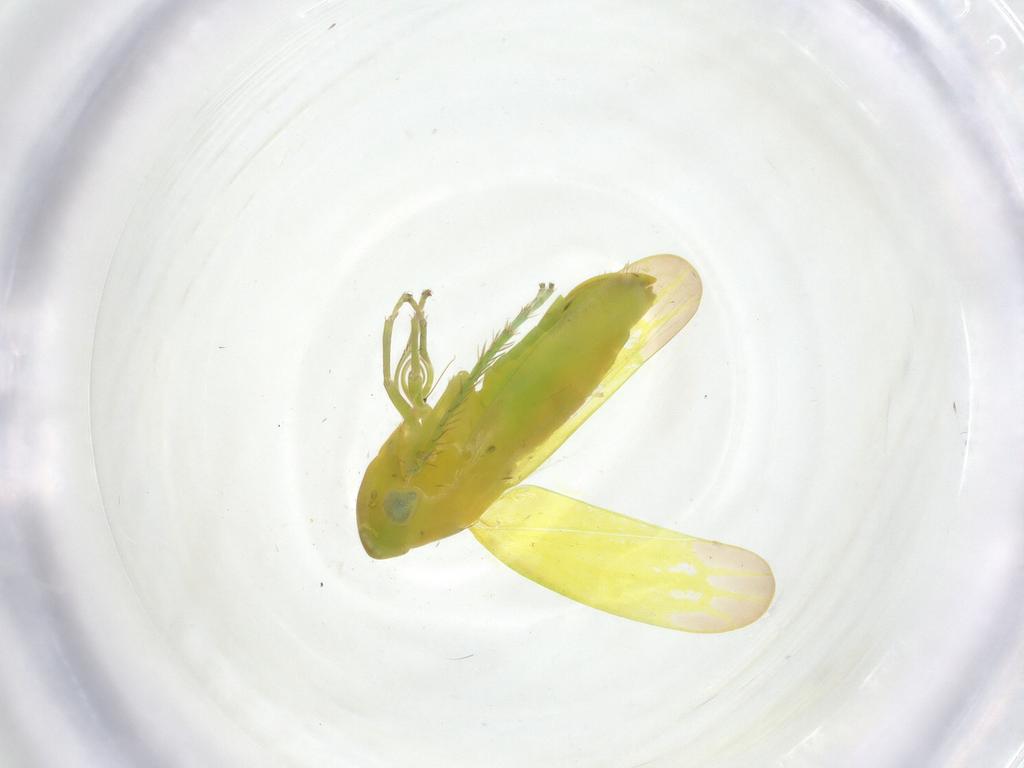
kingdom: Animalia
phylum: Arthropoda
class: Insecta
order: Hemiptera
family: Cicadellidae
